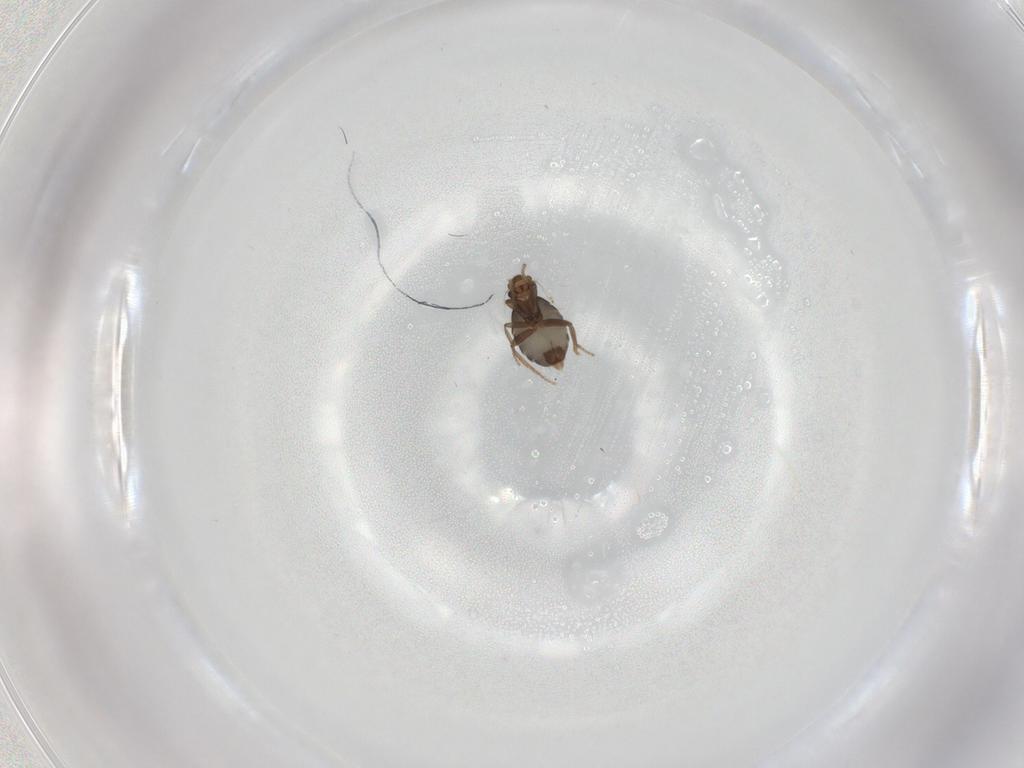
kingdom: Animalia
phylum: Arthropoda
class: Insecta
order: Diptera
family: Phoridae
